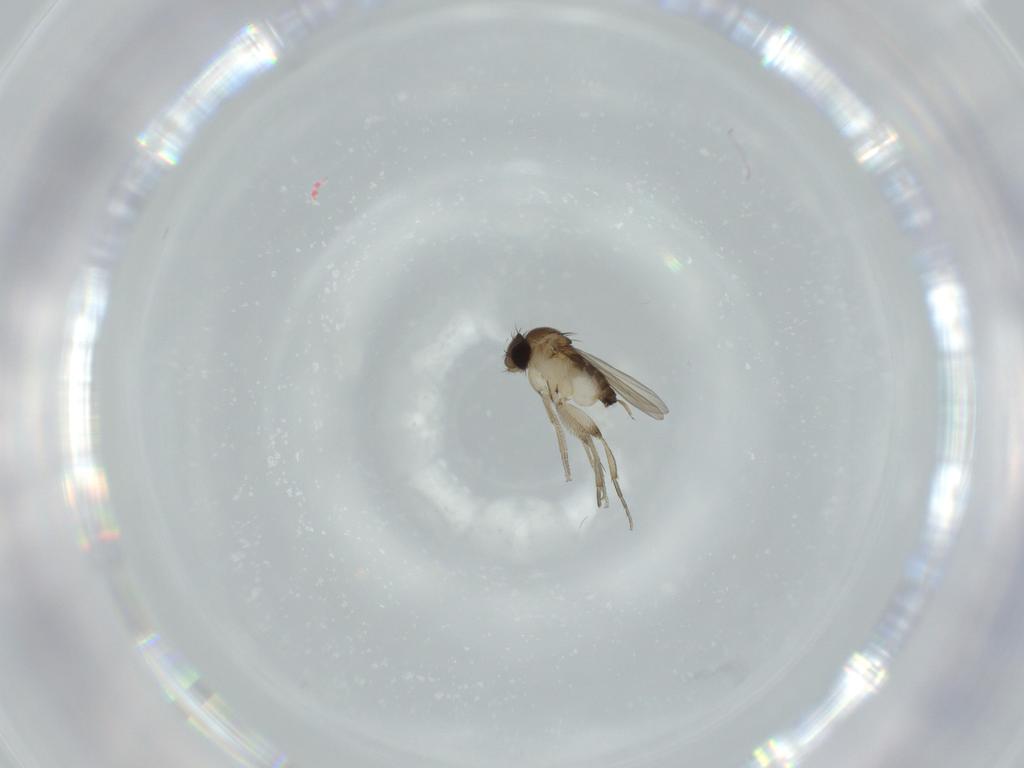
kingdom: Animalia
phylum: Arthropoda
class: Insecta
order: Diptera
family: Phoridae
